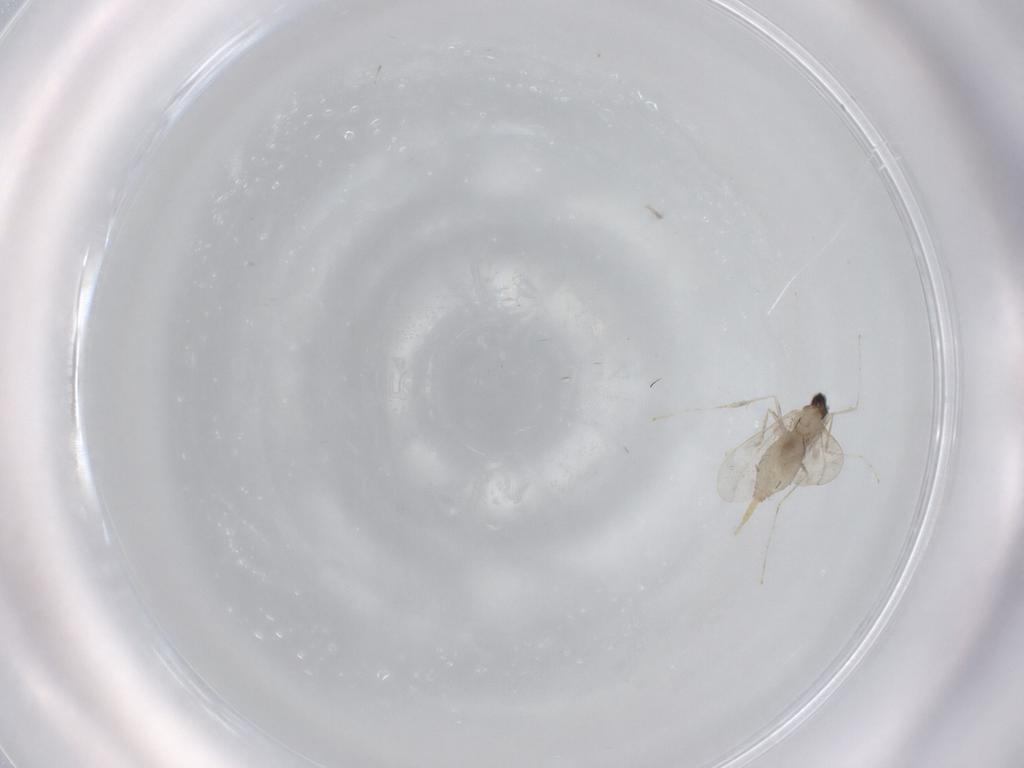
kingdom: Animalia
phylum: Arthropoda
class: Insecta
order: Diptera
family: Cecidomyiidae
